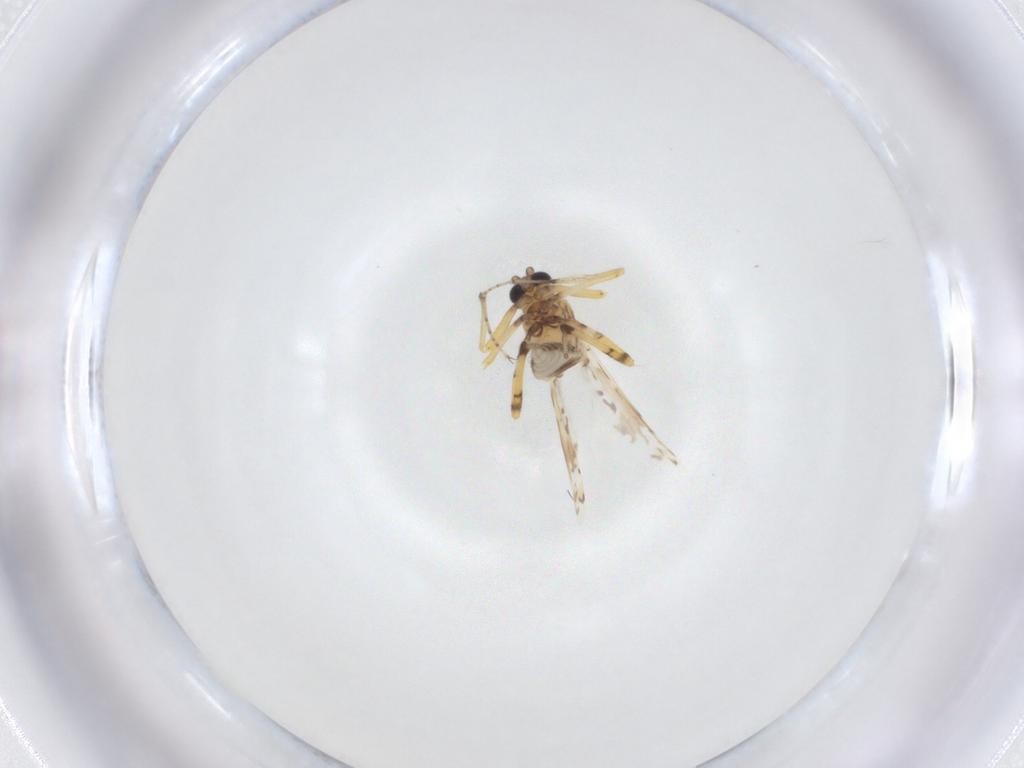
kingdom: Animalia
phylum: Arthropoda
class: Insecta
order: Diptera
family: Ceratopogonidae
